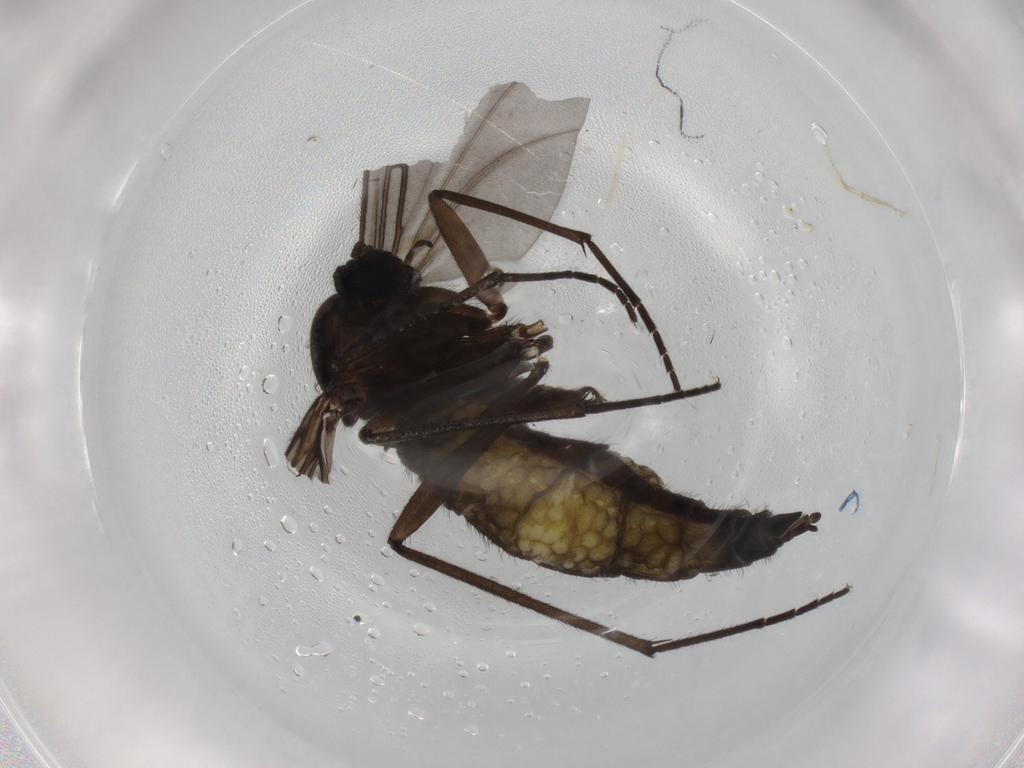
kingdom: Animalia
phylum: Arthropoda
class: Insecta
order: Diptera
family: Sciaridae
